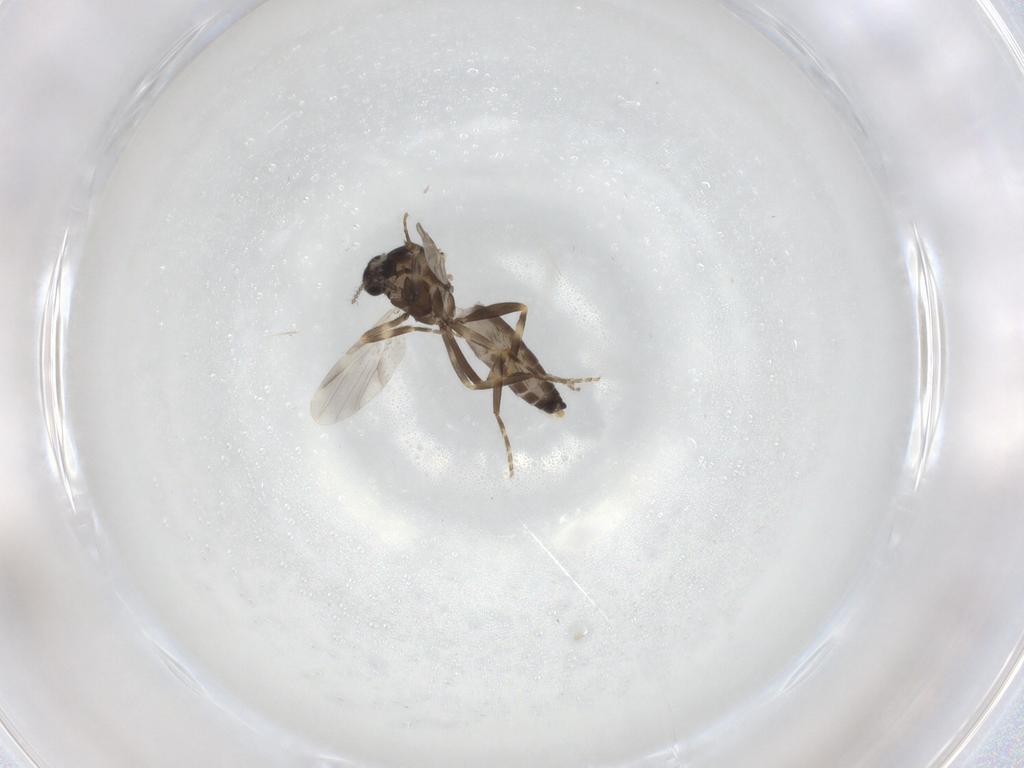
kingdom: Animalia
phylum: Arthropoda
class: Insecta
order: Diptera
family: Ceratopogonidae
